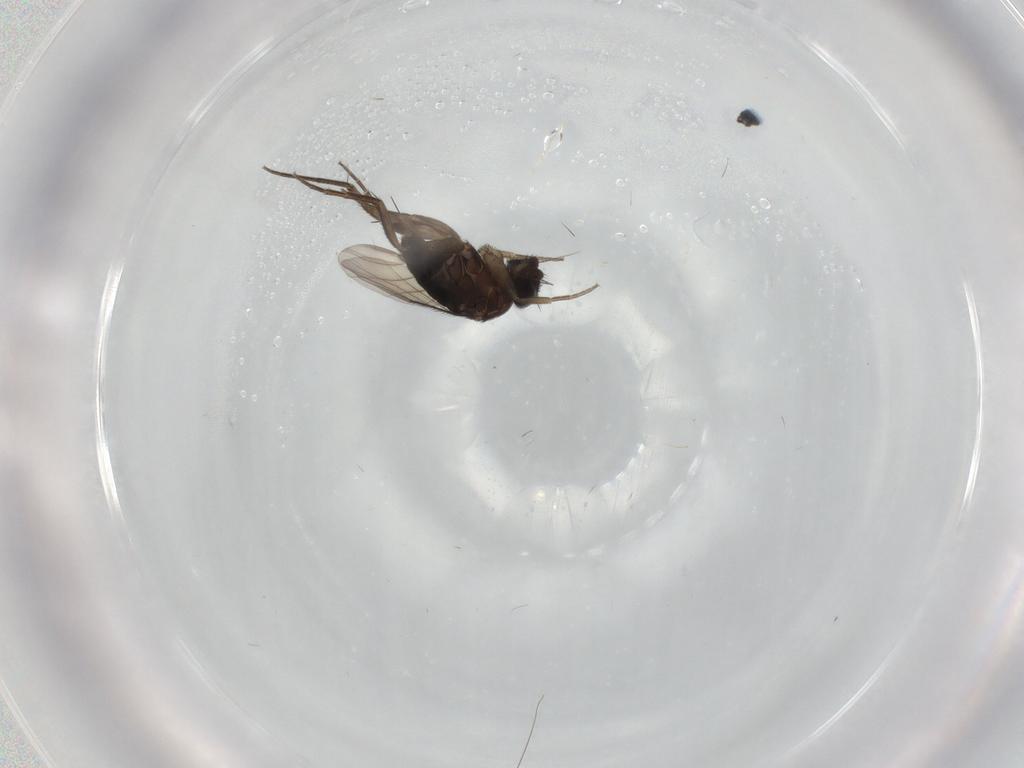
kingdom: Animalia
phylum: Arthropoda
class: Insecta
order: Diptera
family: Phoridae
